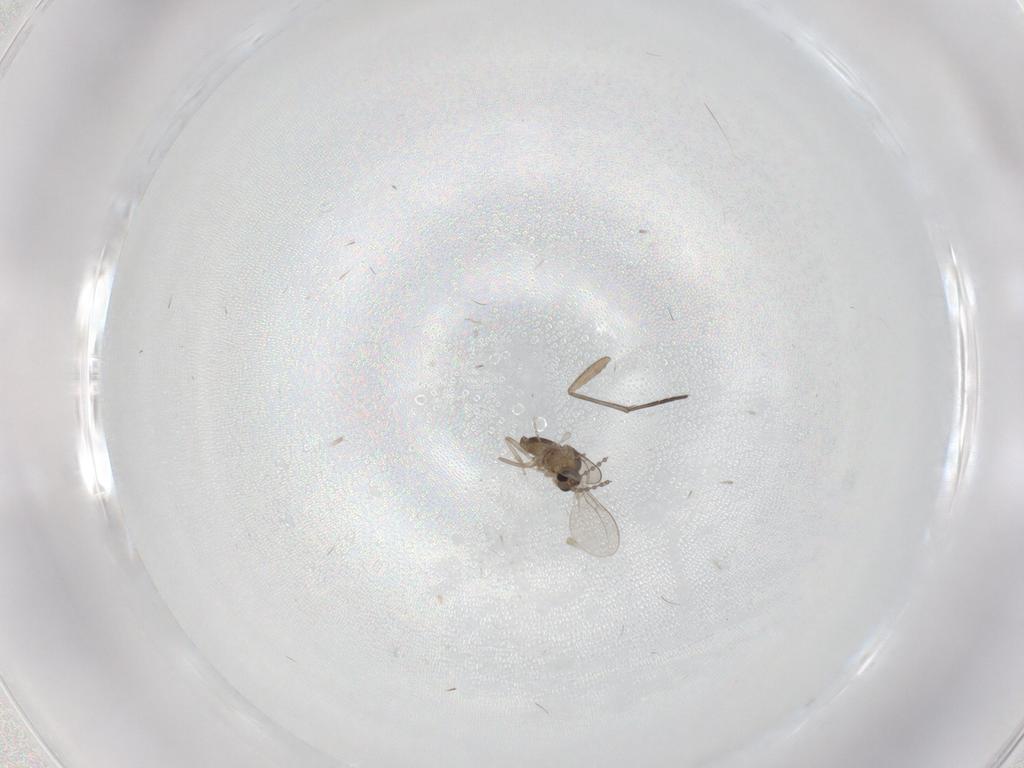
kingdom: Animalia
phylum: Arthropoda
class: Insecta
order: Diptera
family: Cecidomyiidae
